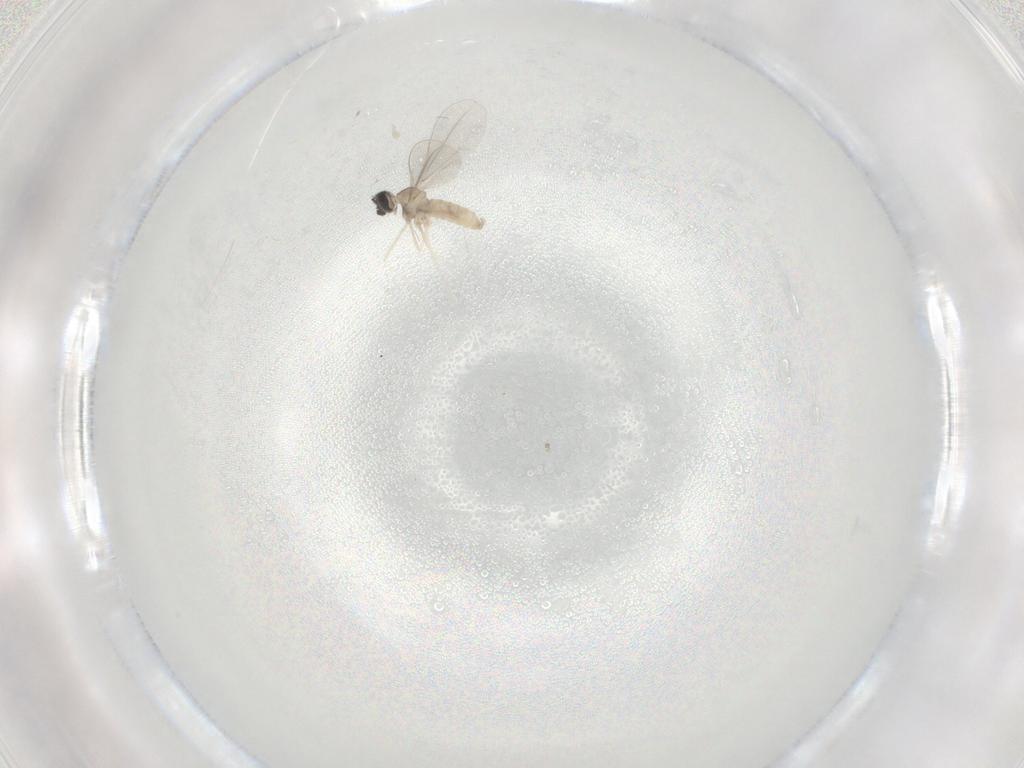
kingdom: Animalia
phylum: Arthropoda
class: Insecta
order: Diptera
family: Cecidomyiidae
